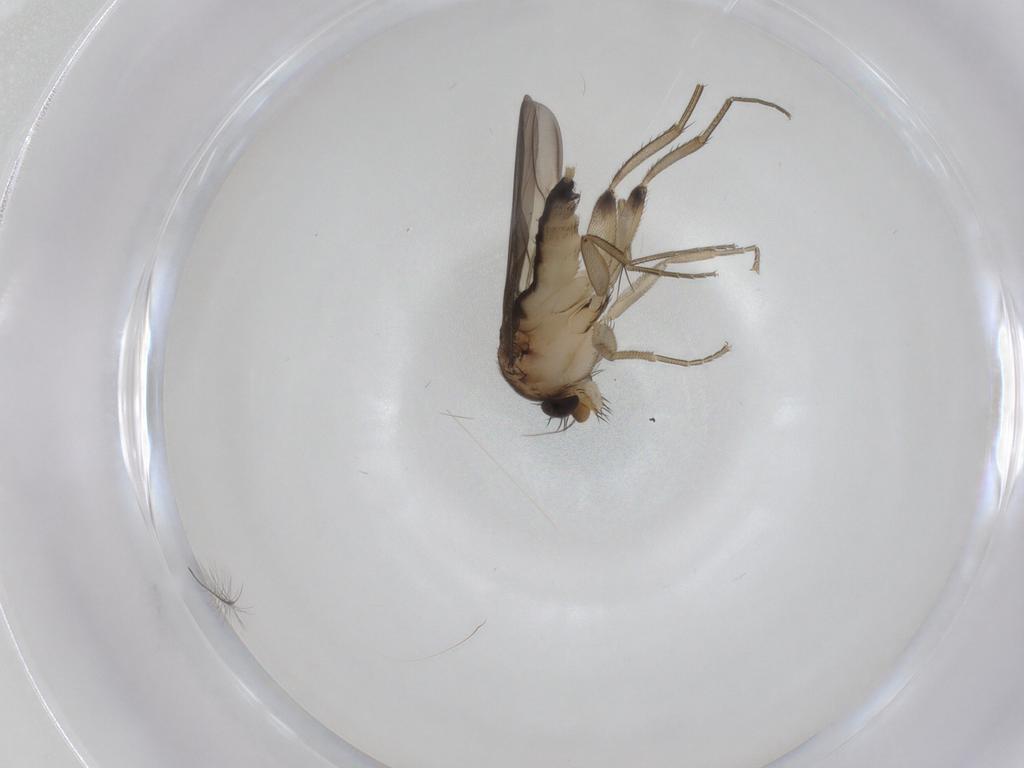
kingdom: Animalia
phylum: Arthropoda
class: Insecta
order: Diptera
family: Phoridae
